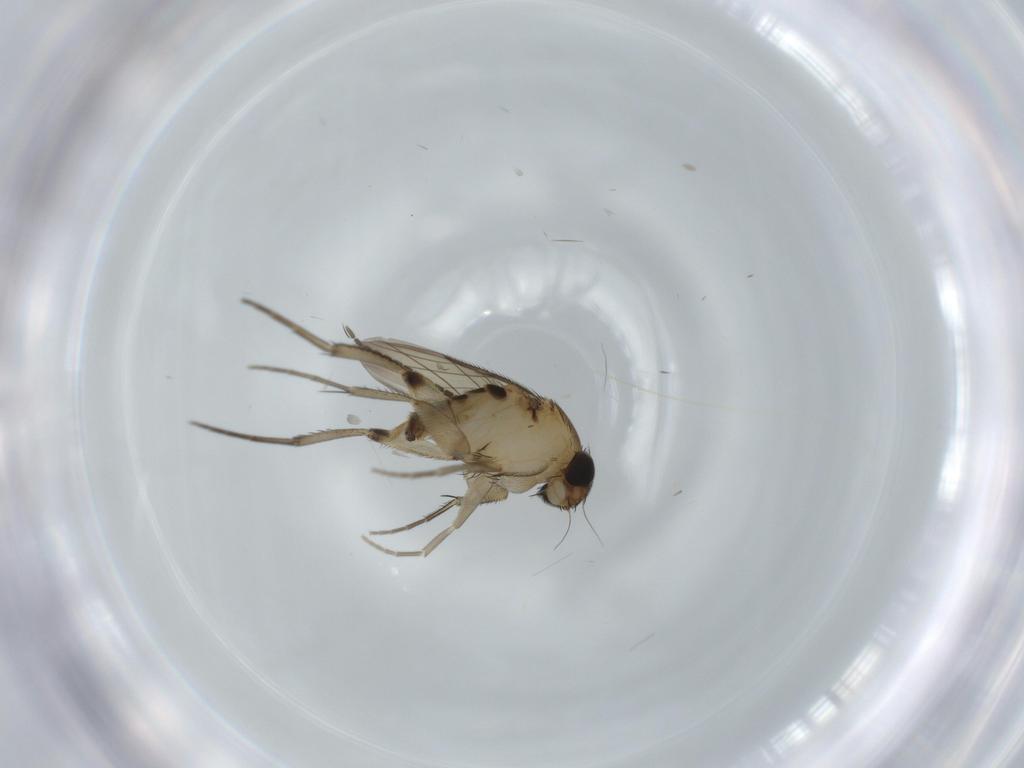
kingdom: Animalia
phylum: Arthropoda
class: Insecta
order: Diptera
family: Phoridae
